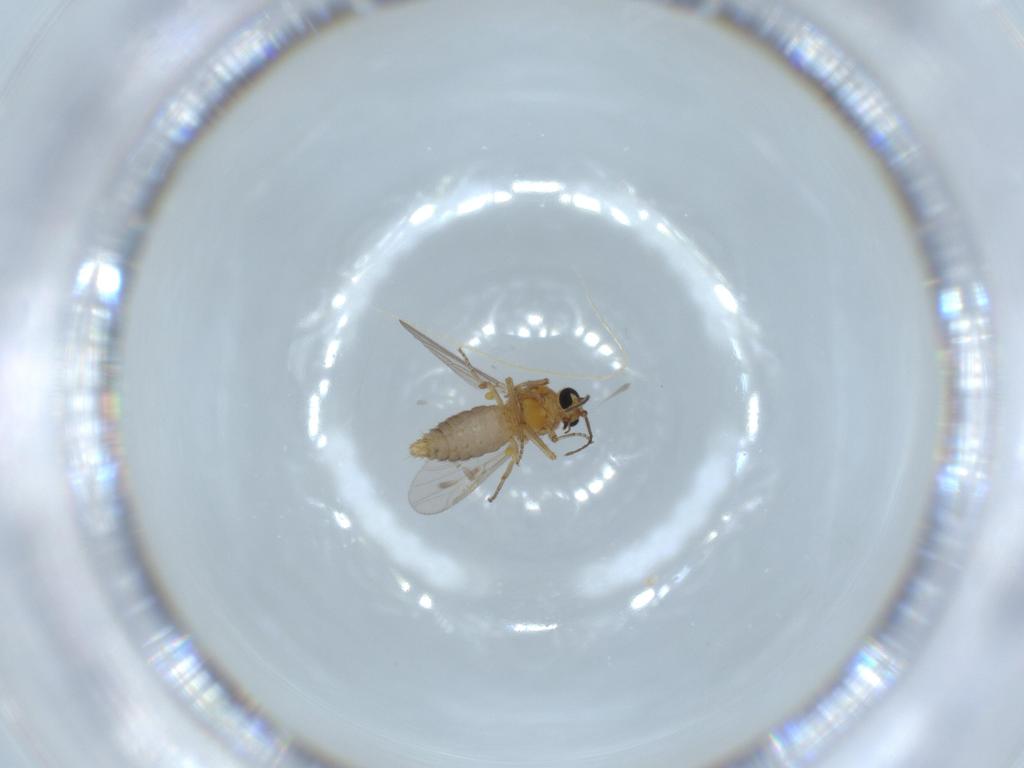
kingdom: Animalia
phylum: Arthropoda
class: Insecta
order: Diptera
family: Ceratopogonidae
